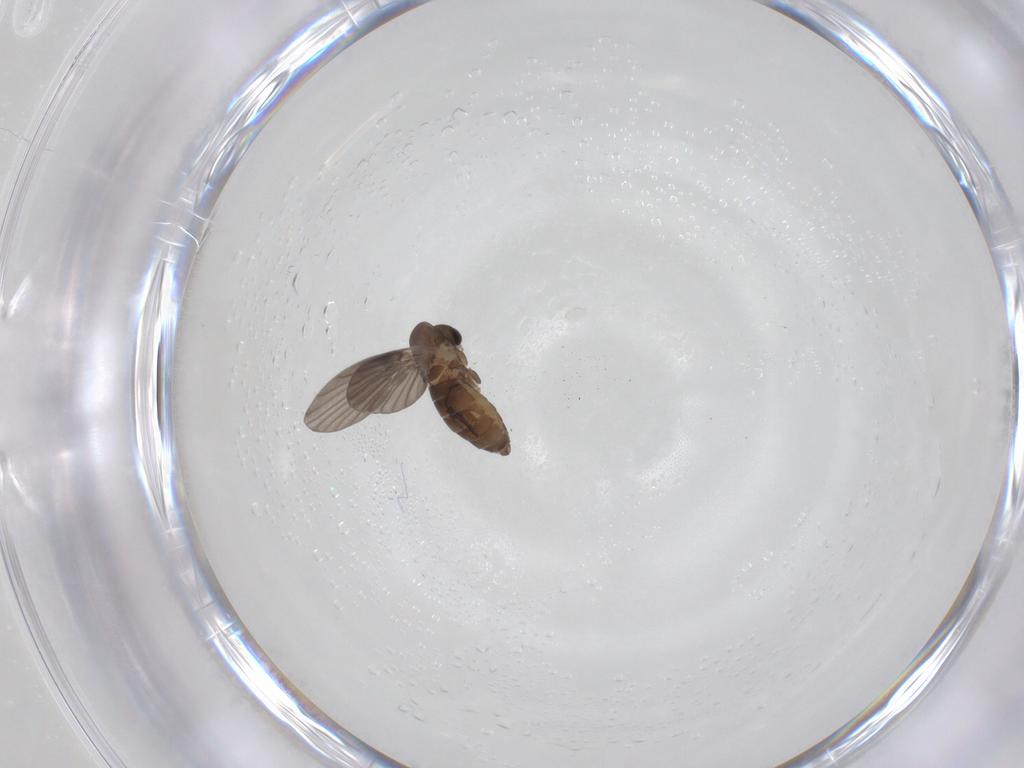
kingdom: Animalia
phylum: Arthropoda
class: Insecta
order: Diptera
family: Psychodidae
